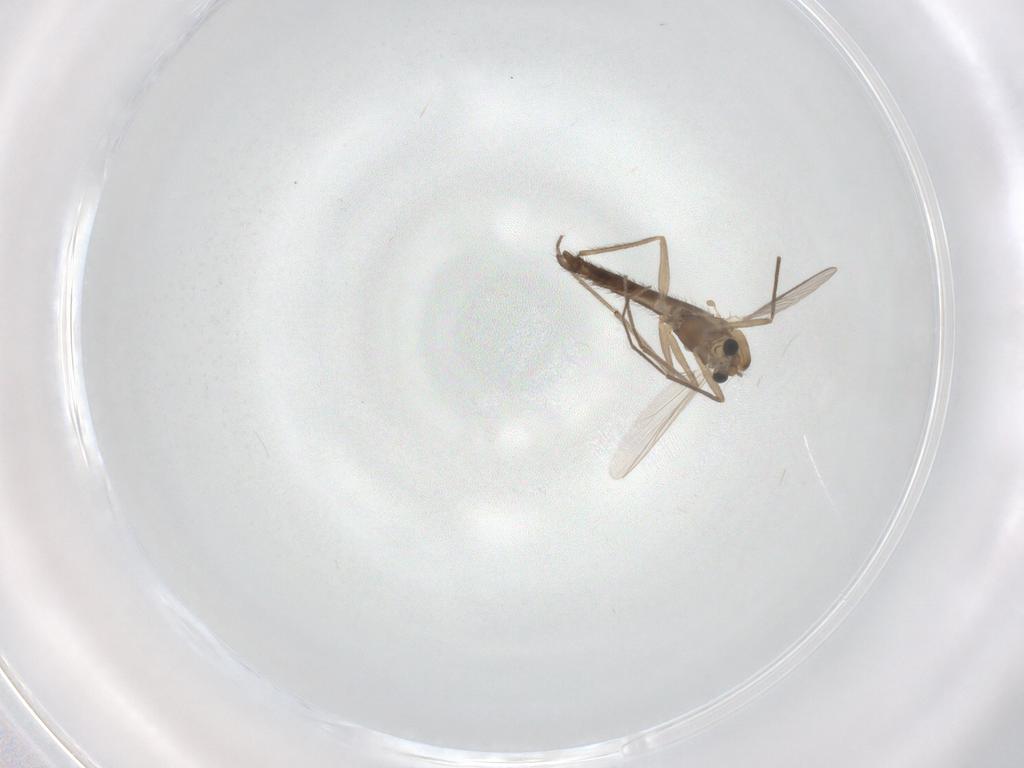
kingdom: Animalia
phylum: Arthropoda
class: Insecta
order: Diptera
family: Chironomidae
